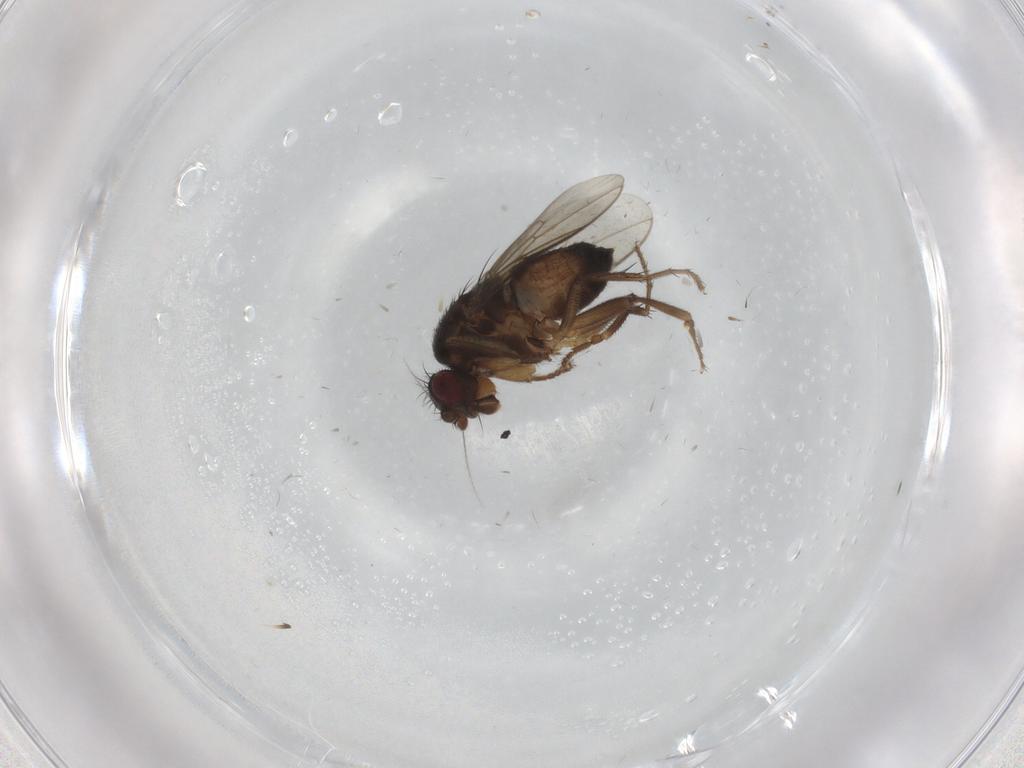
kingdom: Animalia
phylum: Arthropoda
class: Insecta
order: Diptera
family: Sphaeroceridae
